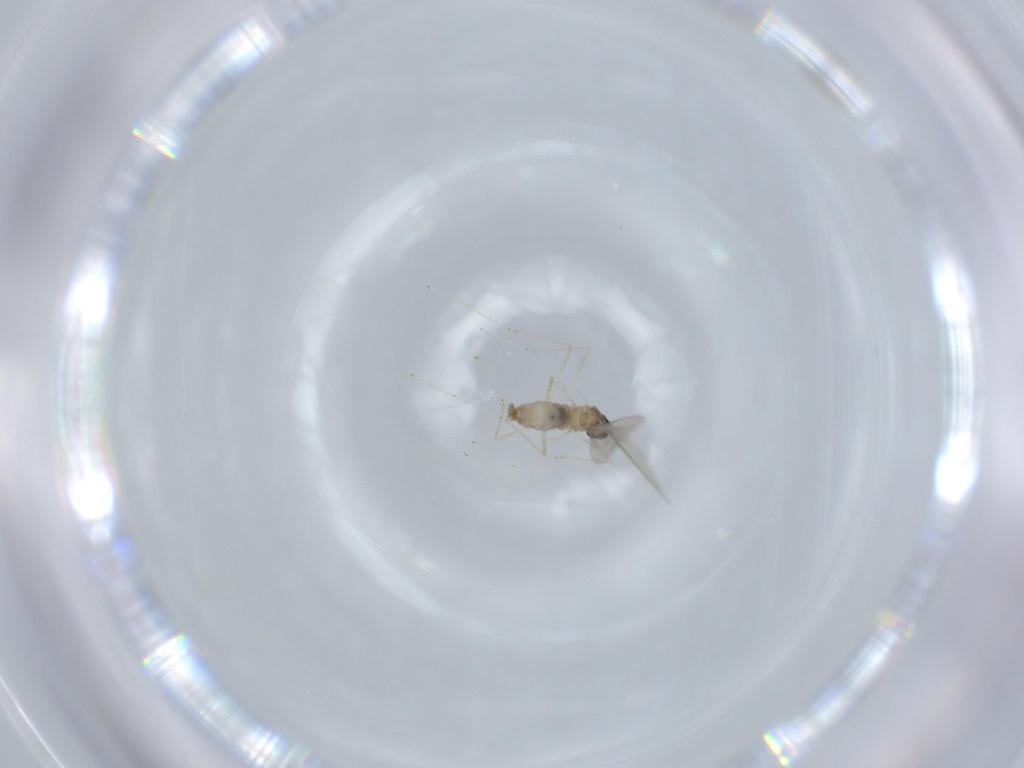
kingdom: Animalia
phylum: Arthropoda
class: Insecta
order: Diptera
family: Cecidomyiidae
